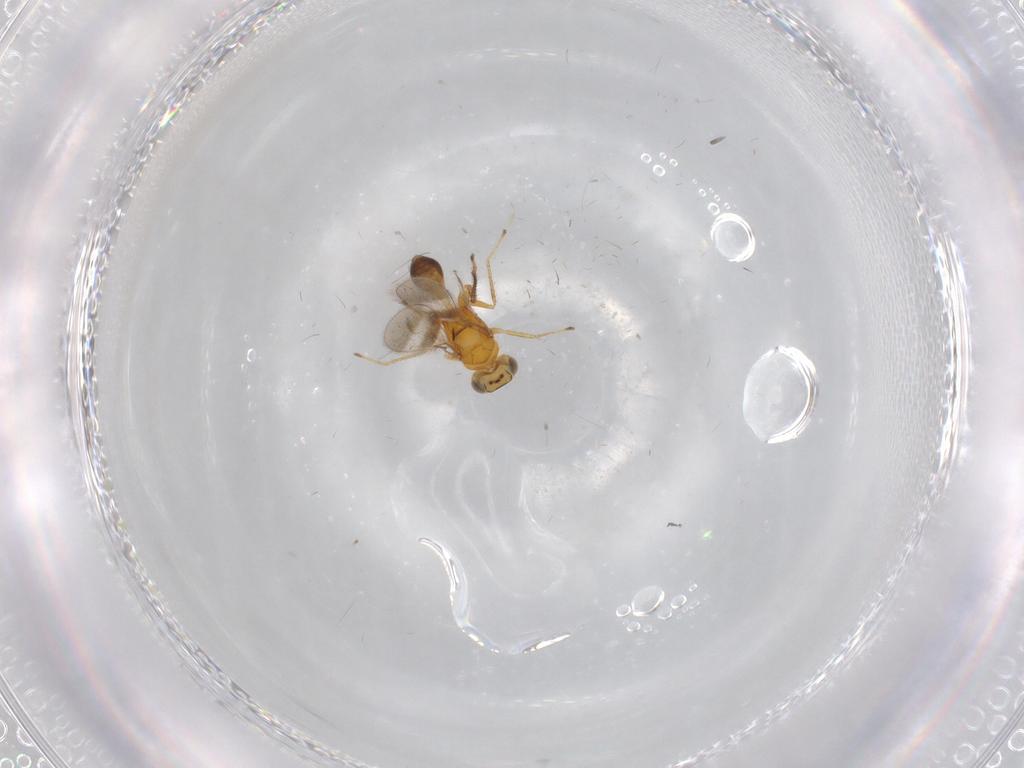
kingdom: Animalia
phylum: Arthropoda
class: Insecta
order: Hymenoptera
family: Mymaridae
